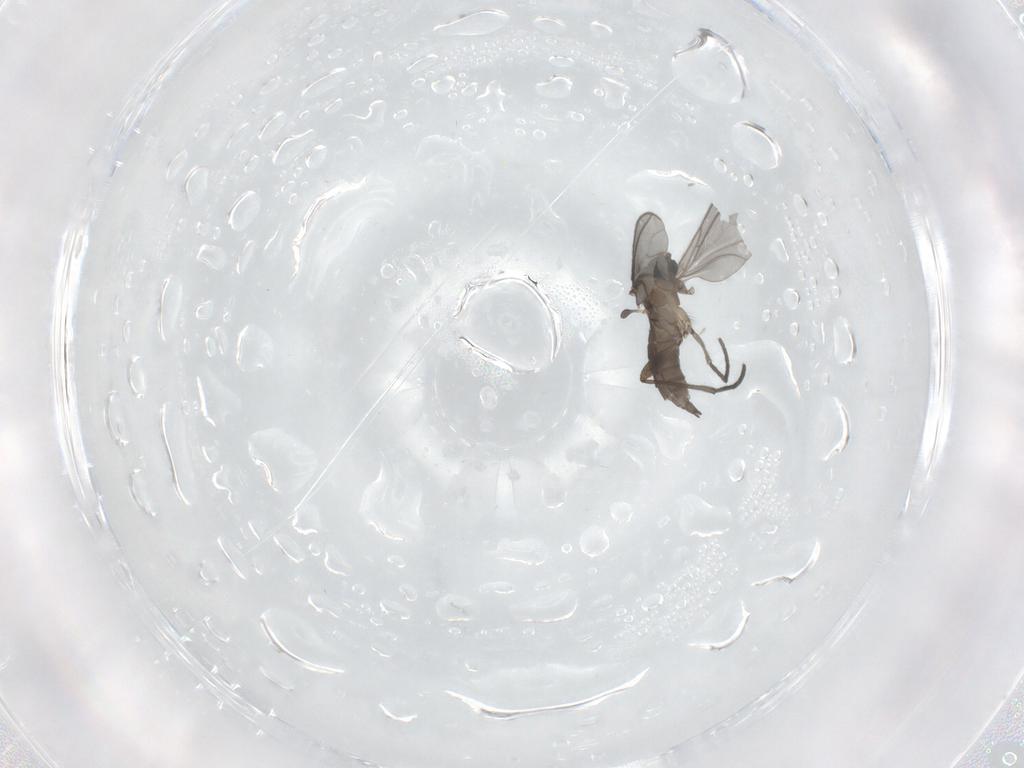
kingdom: Animalia
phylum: Arthropoda
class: Insecta
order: Diptera
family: Sciaridae
